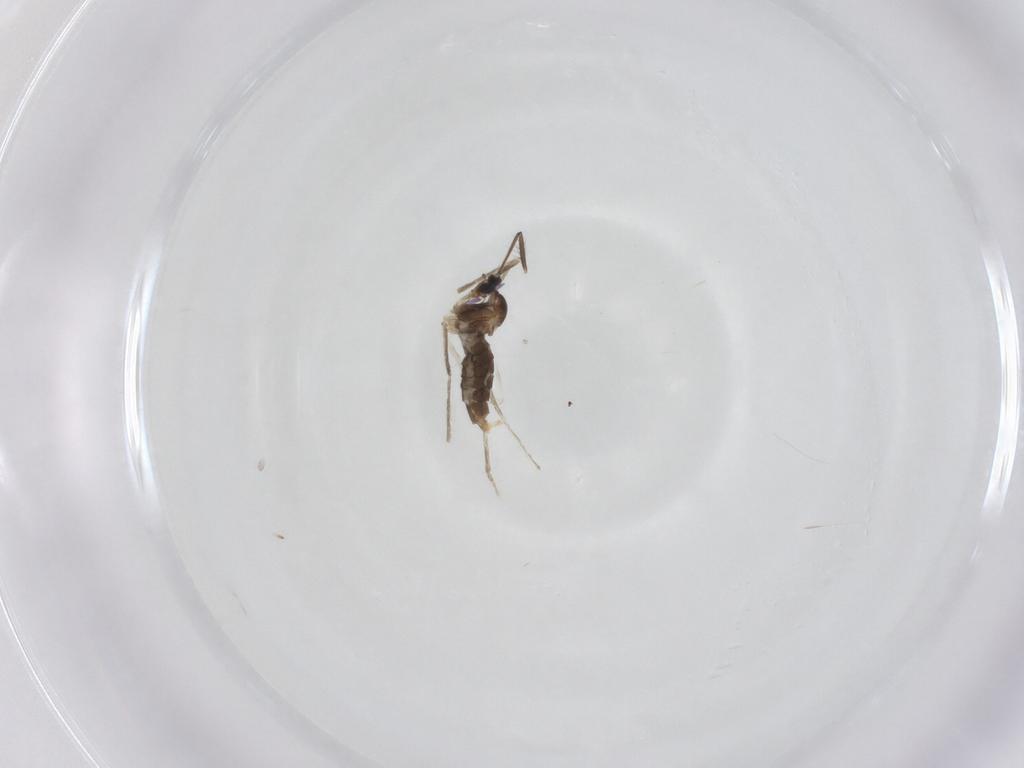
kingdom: Animalia
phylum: Arthropoda
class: Insecta
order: Diptera
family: Cecidomyiidae
